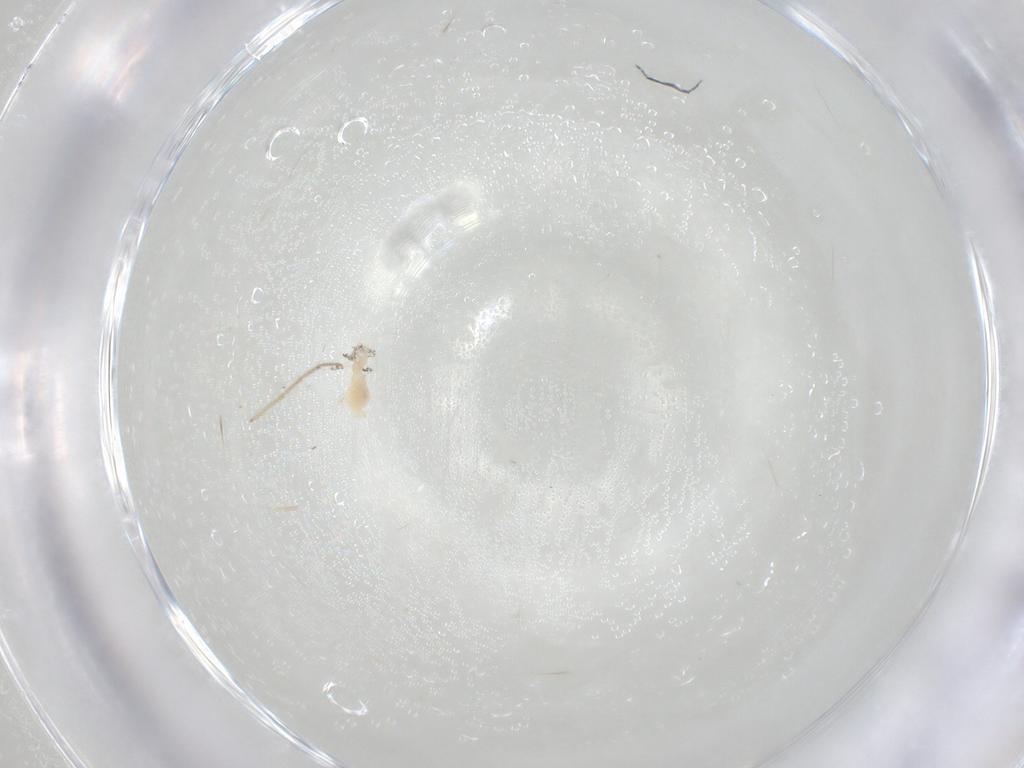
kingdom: Animalia
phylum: Arthropoda
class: Arachnida
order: Trombidiformes
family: Cunaxidae
